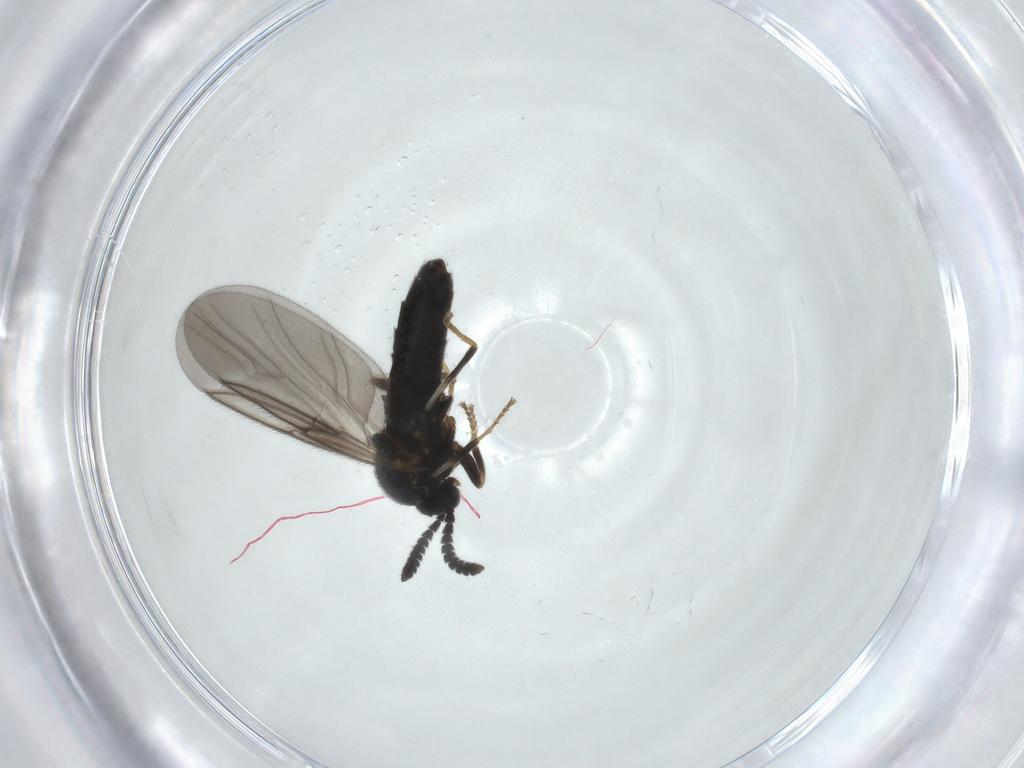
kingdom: Animalia
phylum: Arthropoda
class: Insecta
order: Diptera
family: Scatopsidae
